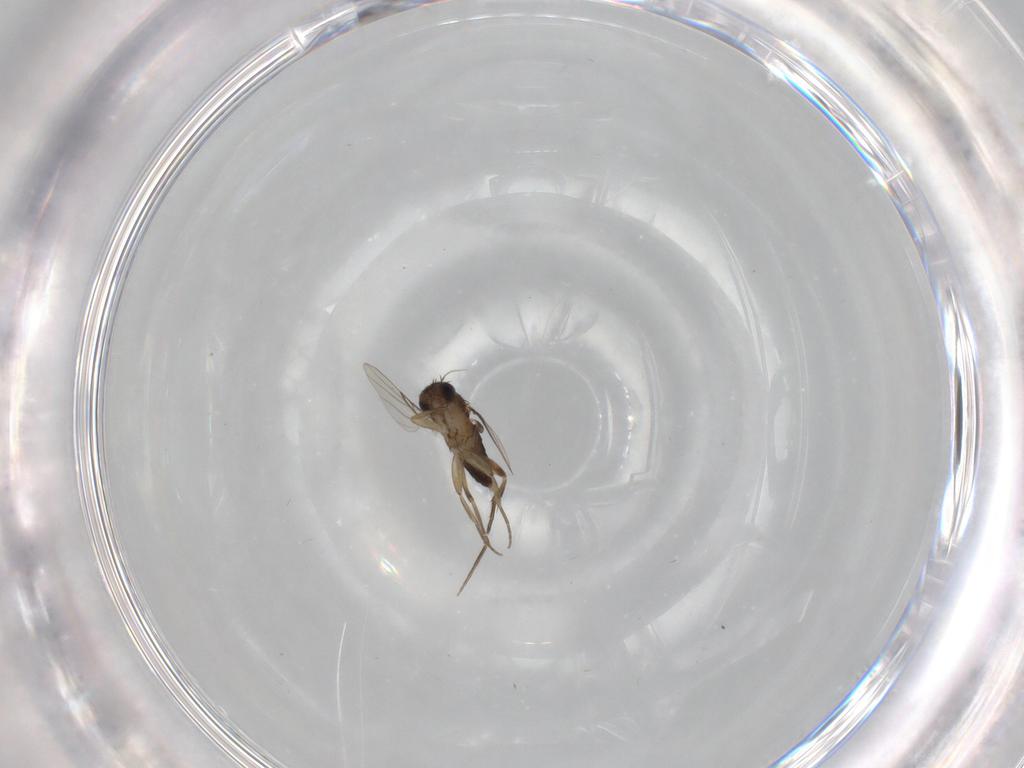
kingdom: Animalia
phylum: Arthropoda
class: Insecta
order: Diptera
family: Phoridae
